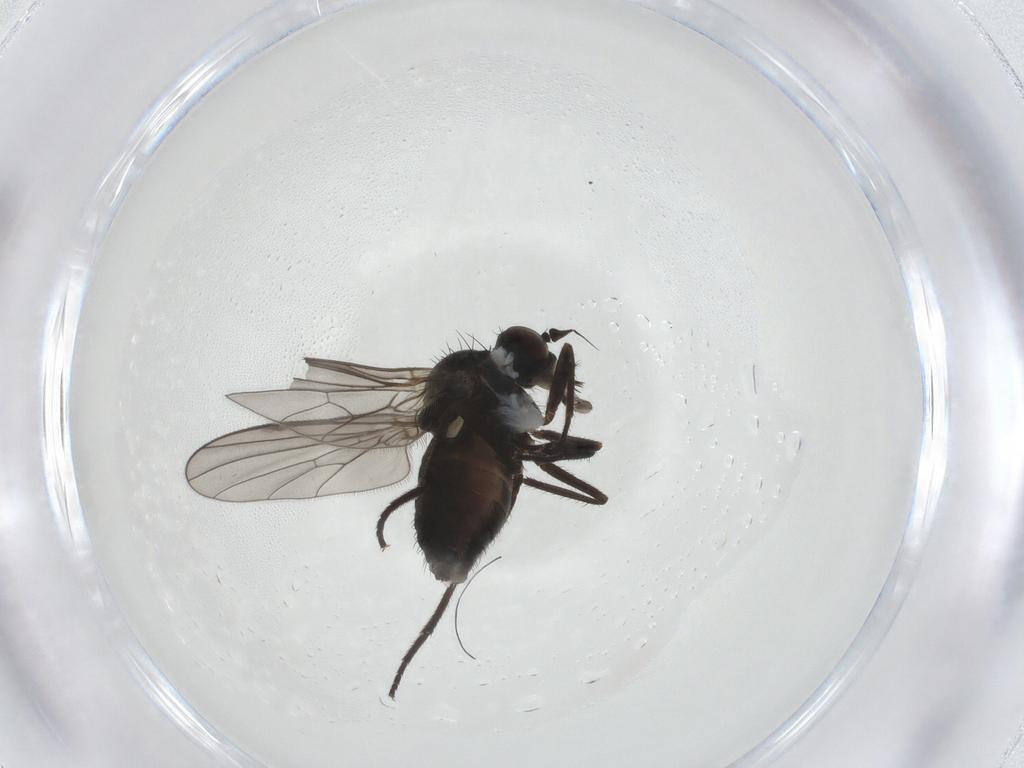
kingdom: Animalia
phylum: Arthropoda
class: Insecta
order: Diptera
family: Dolichopodidae
